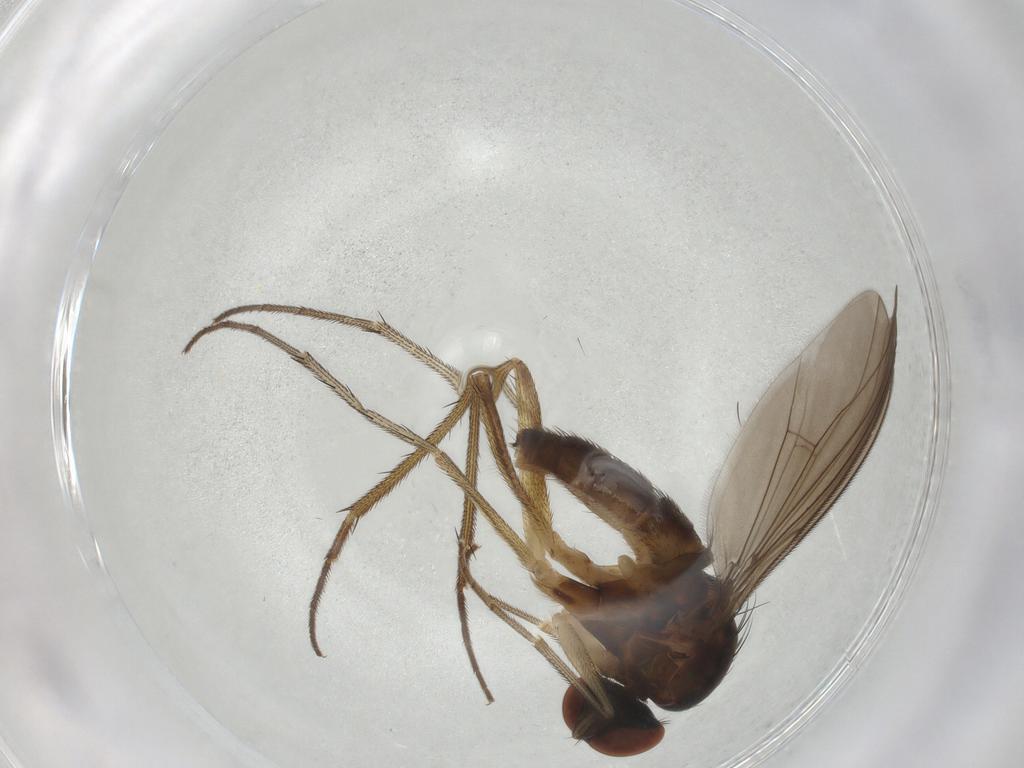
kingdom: Animalia
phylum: Arthropoda
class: Insecta
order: Diptera
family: Dolichopodidae
